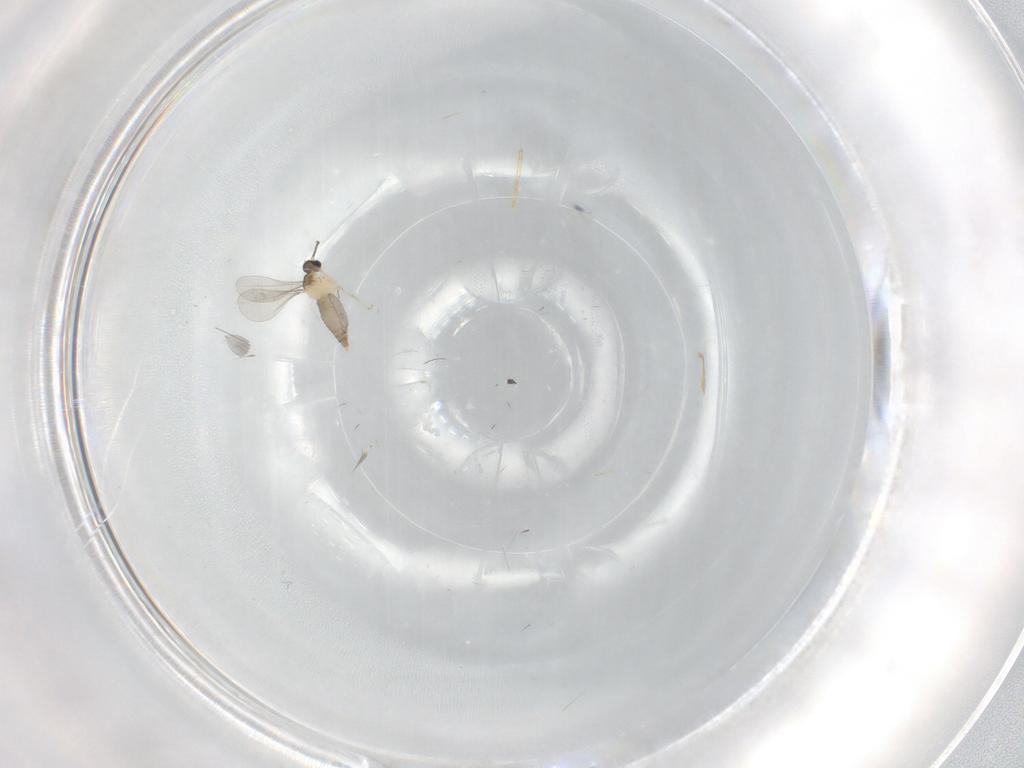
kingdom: Animalia
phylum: Arthropoda
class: Insecta
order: Diptera
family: Cecidomyiidae
